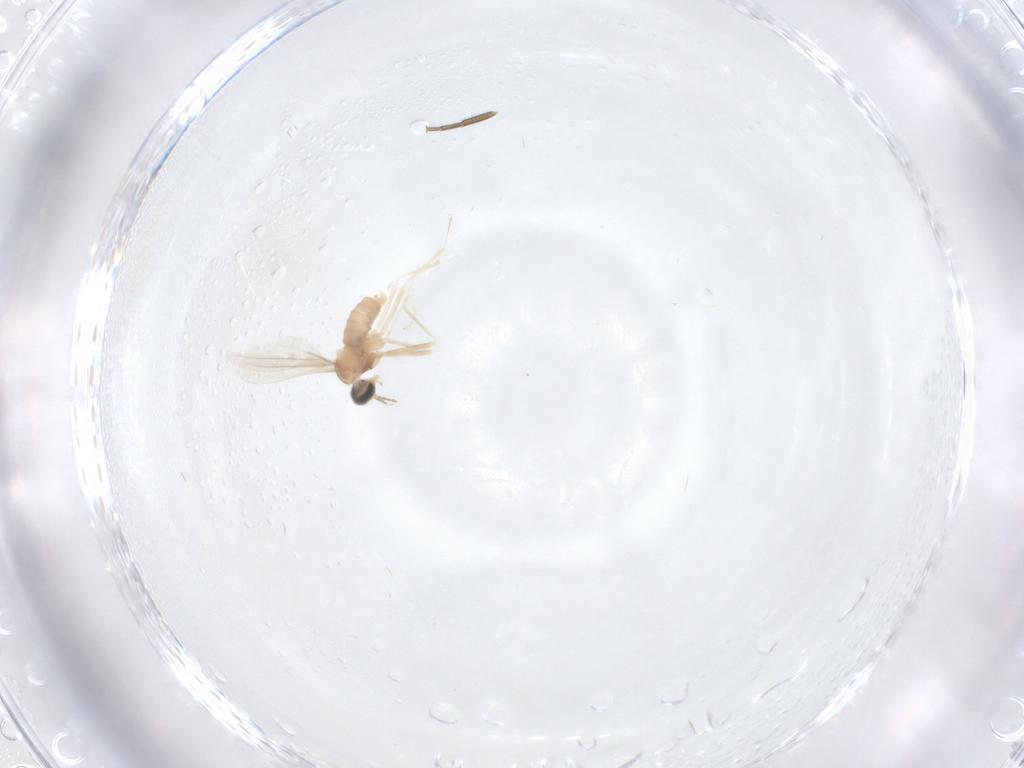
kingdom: Animalia
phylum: Arthropoda
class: Insecta
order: Diptera
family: Cecidomyiidae
